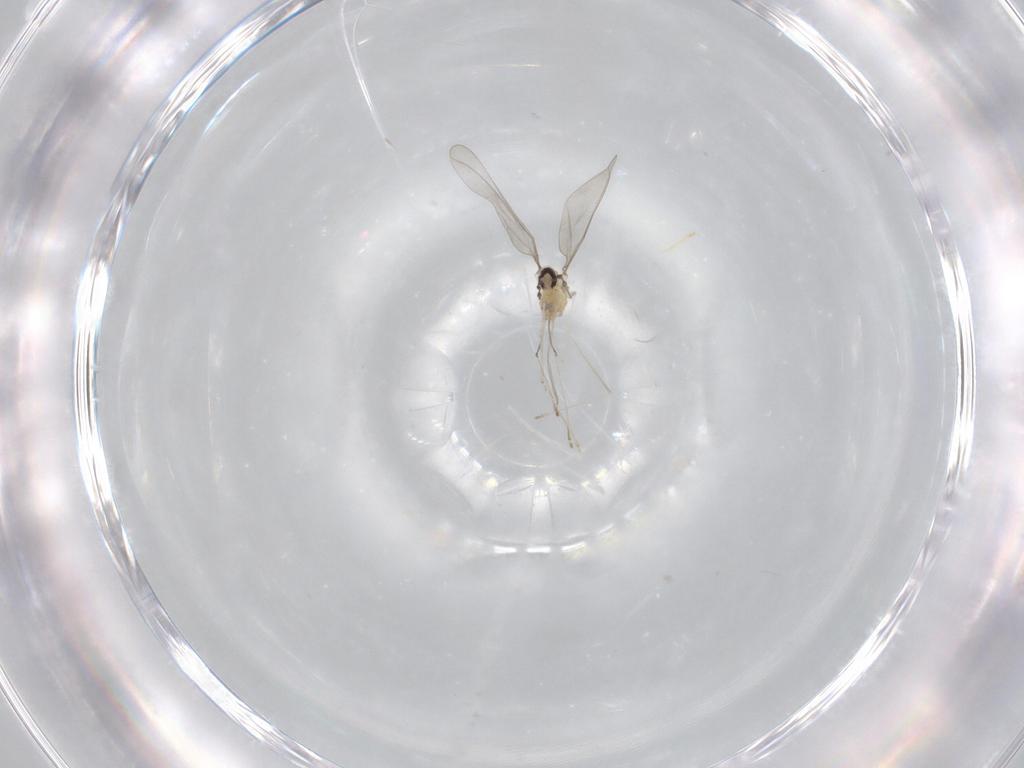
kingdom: Animalia
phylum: Arthropoda
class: Insecta
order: Diptera
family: Cecidomyiidae
